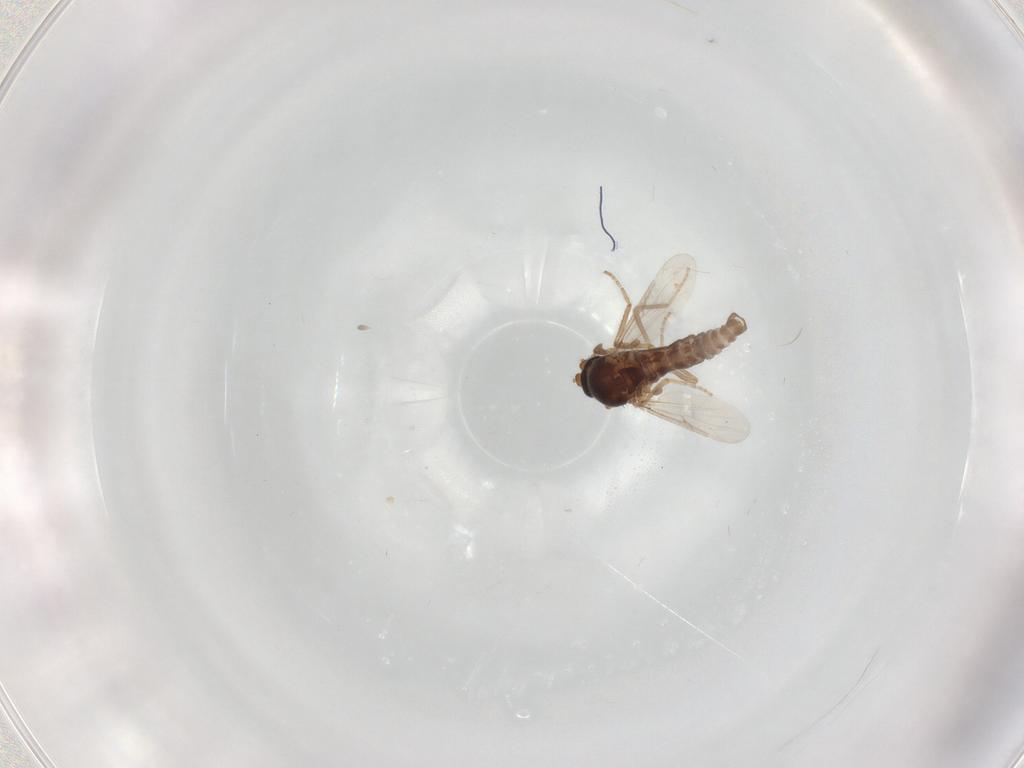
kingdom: Animalia
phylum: Arthropoda
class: Insecta
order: Diptera
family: Ceratopogonidae
